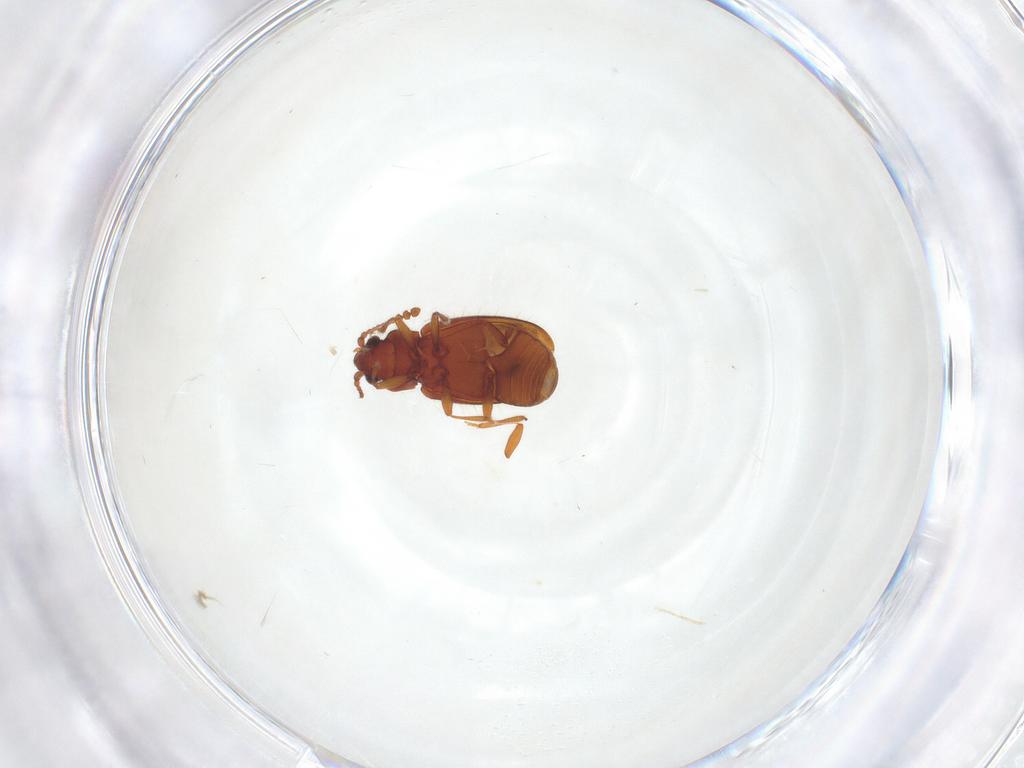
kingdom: Animalia
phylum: Arthropoda
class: Insecta
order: Coleoptera
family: Cryptophagidae
